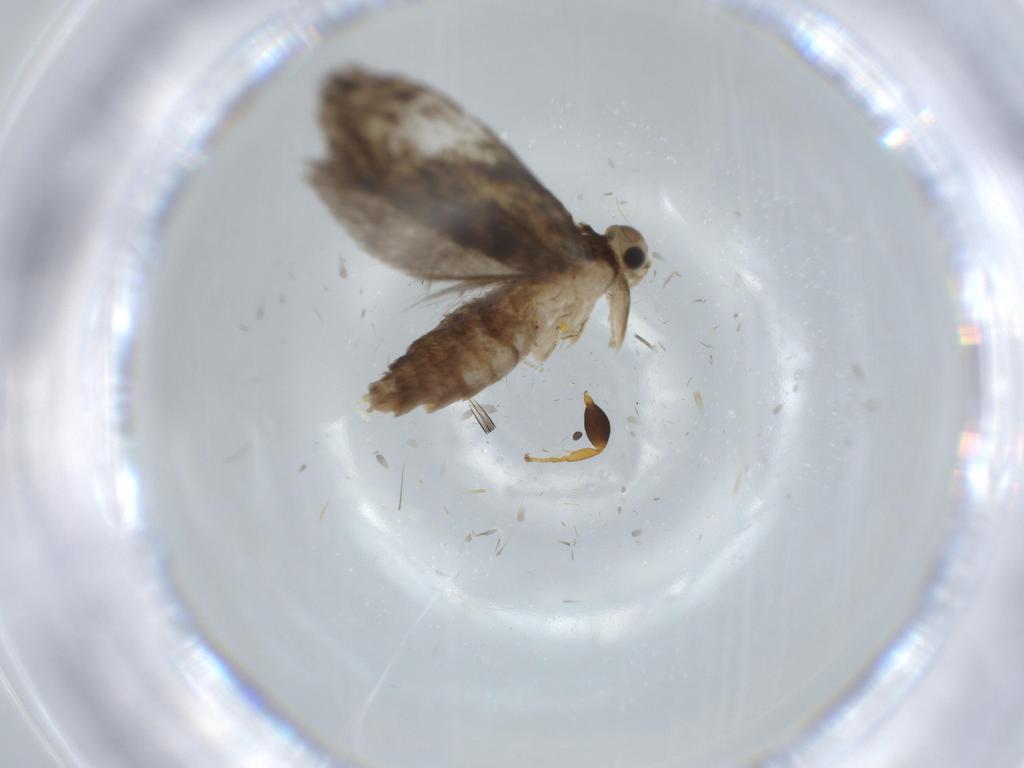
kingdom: Animalia
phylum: Arthropoda
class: Insecta
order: Lepidoptera
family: Tineidae
